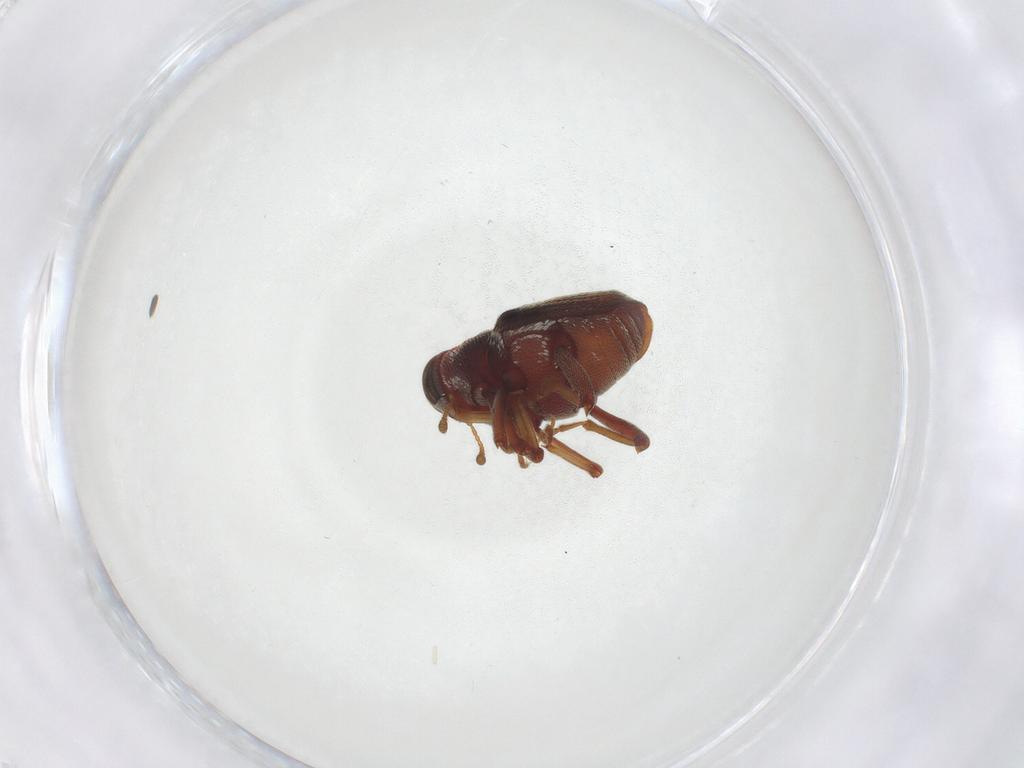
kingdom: Animalia
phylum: Arthropoda
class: Insecta
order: Coleoptera
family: Curculionidae
